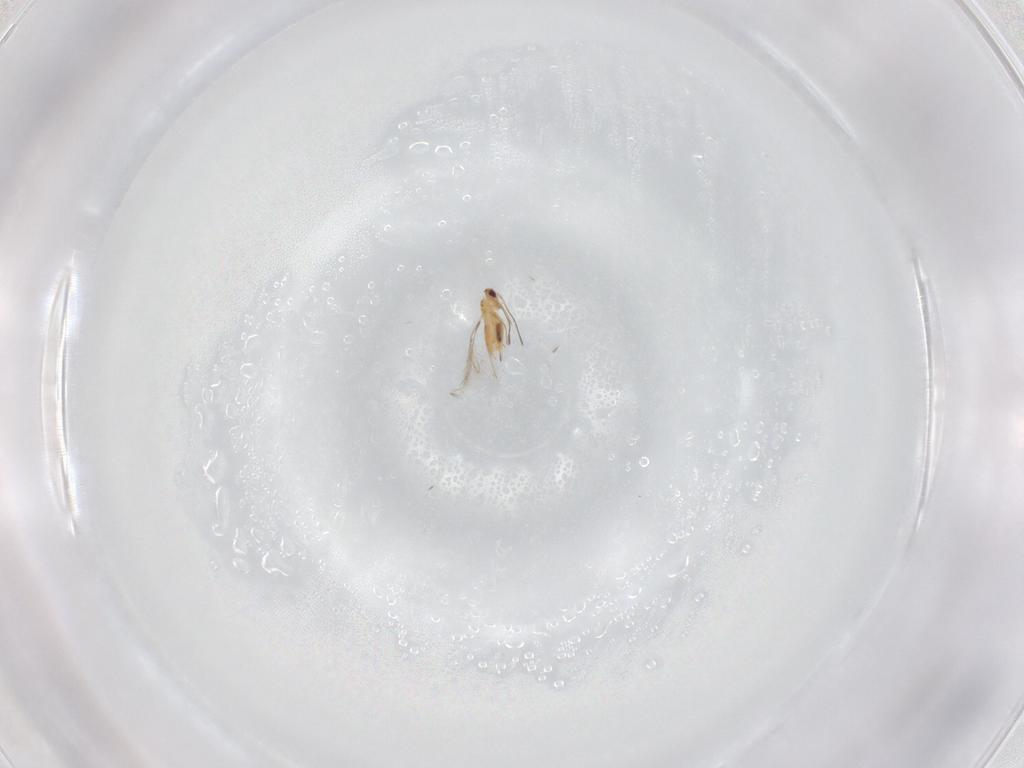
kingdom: Animalia
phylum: Arthropoda
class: Insecta
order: Hymenoptera
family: Mymaridae
